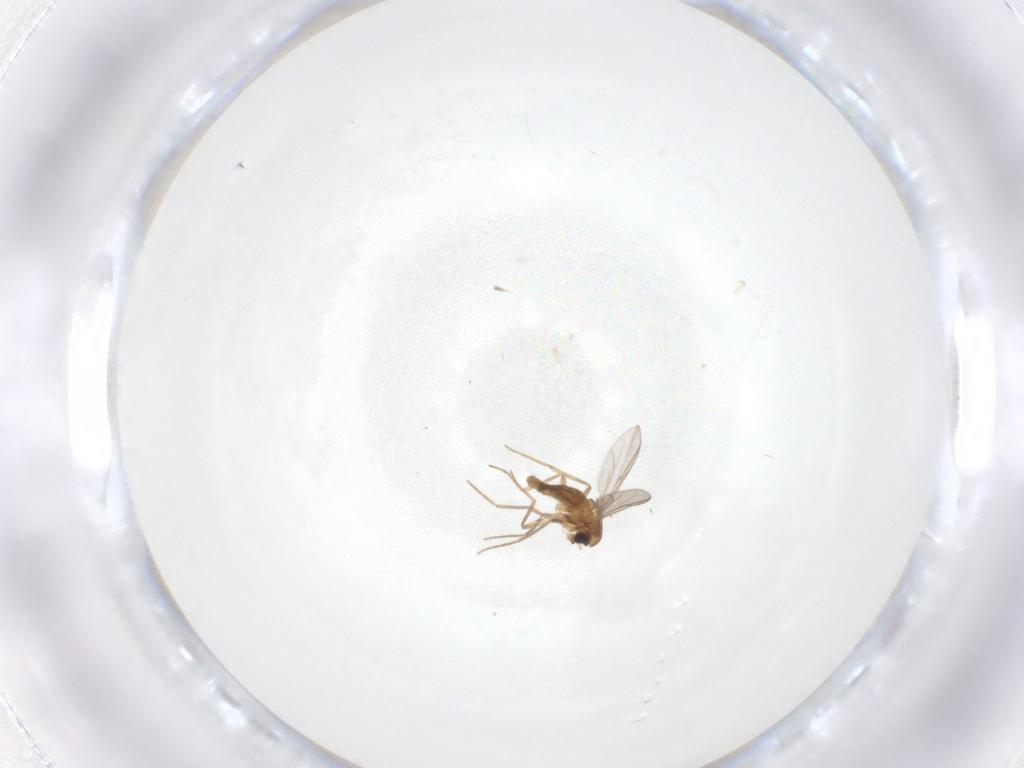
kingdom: Animalia
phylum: Arthropoda
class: Insecta
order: Diptera
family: Chironomidae
